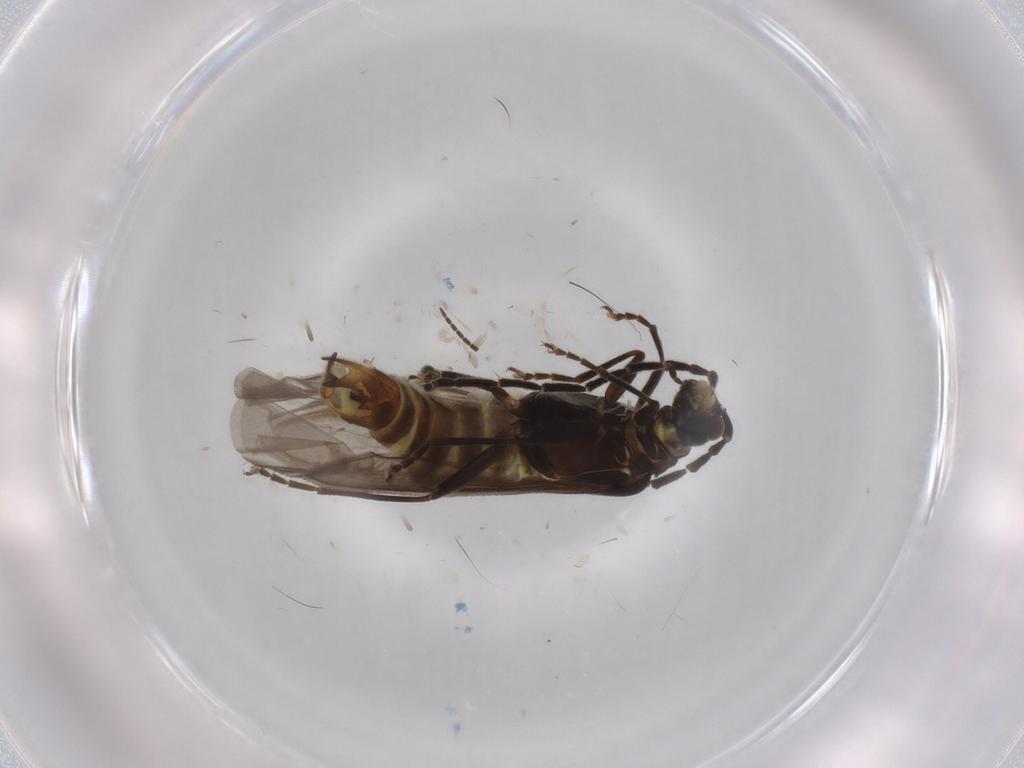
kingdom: Animalia
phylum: Arthropoda
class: Insecta
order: Coleoptera
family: Cantharidae
